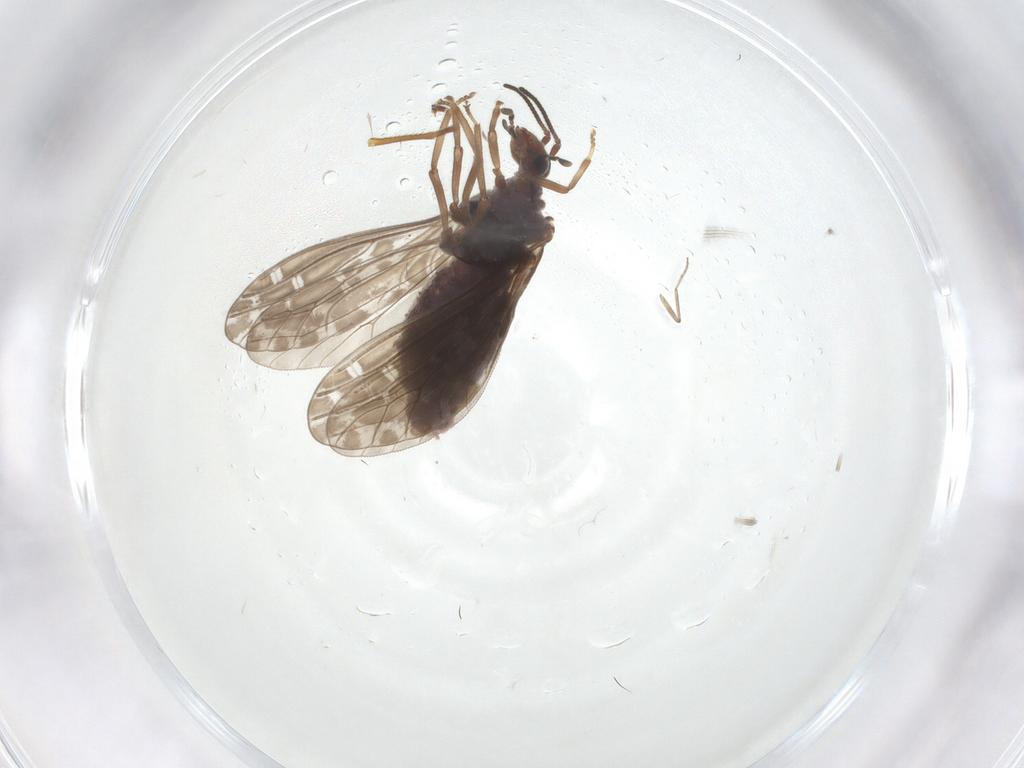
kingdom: Animalia
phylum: Arthropoda
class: Insecta
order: Neuroptera
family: Coniopterygidae
